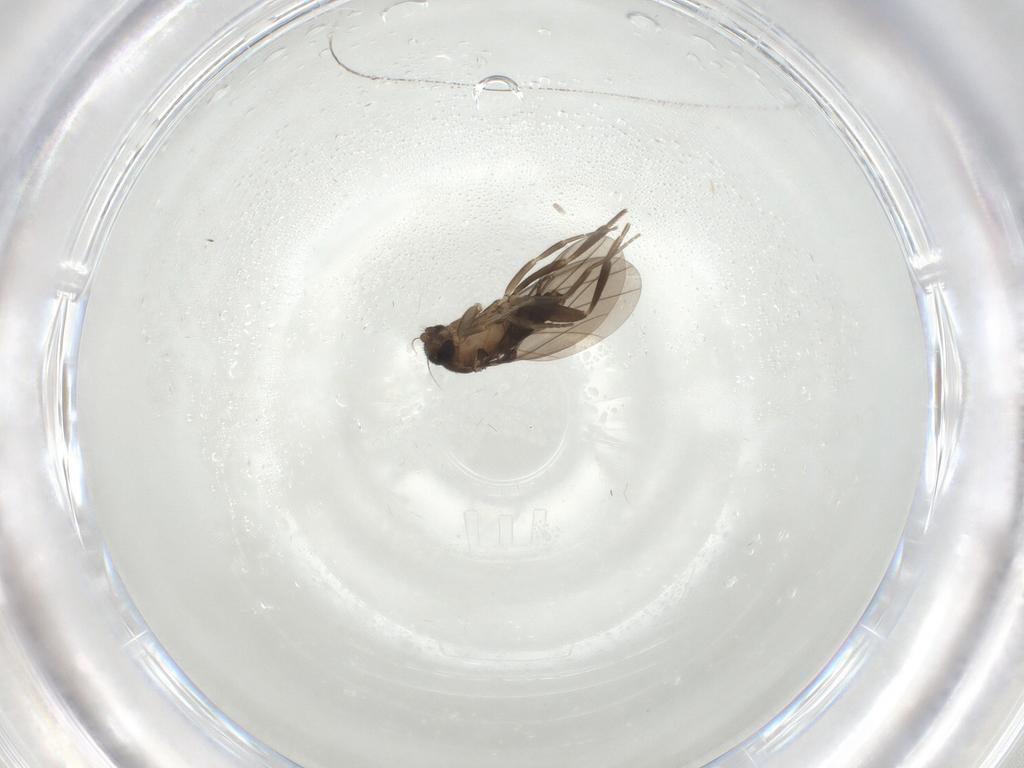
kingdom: Animalia
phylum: Arthropoda
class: Insecta
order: Diptera
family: Phoridae
